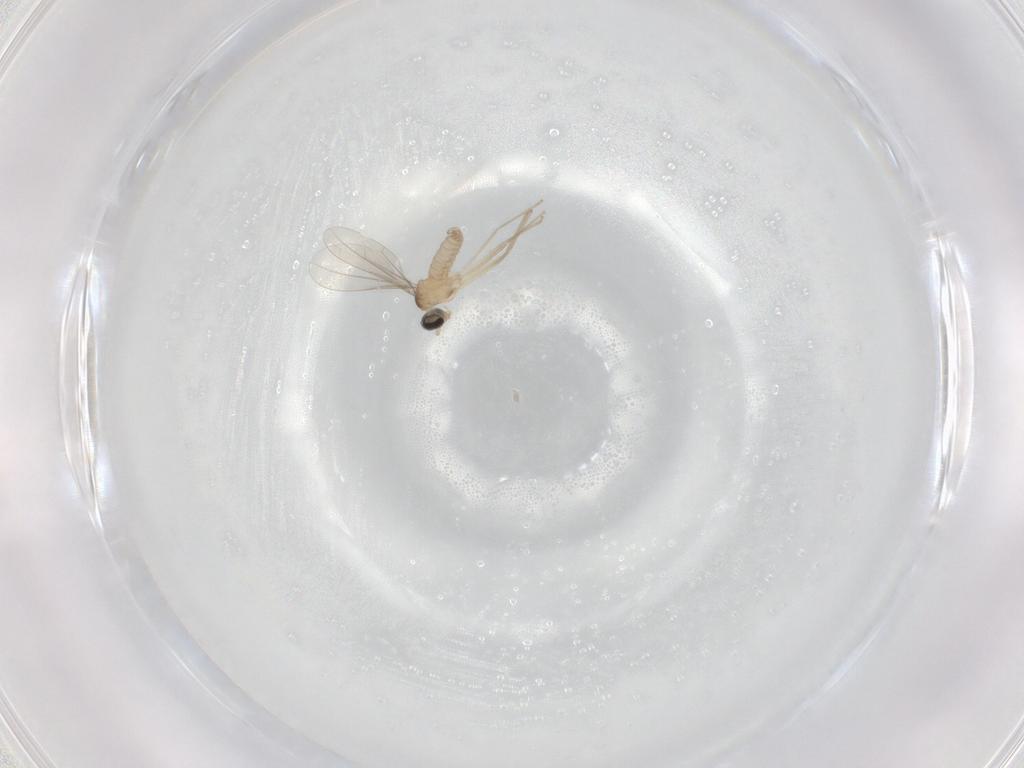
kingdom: Animalia
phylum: Arthropoda
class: Insecta
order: Diptera
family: Cecidomyiidae
